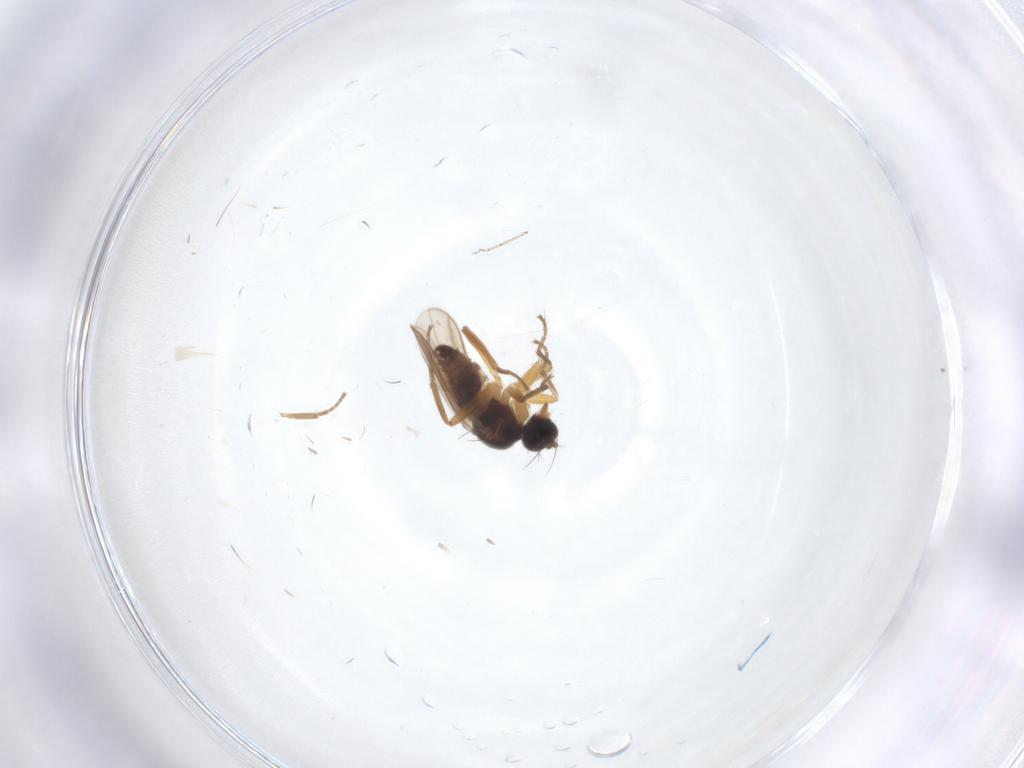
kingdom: Animalia
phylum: Arthropoda
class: Insecta
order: Diptera
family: Hybotidae
